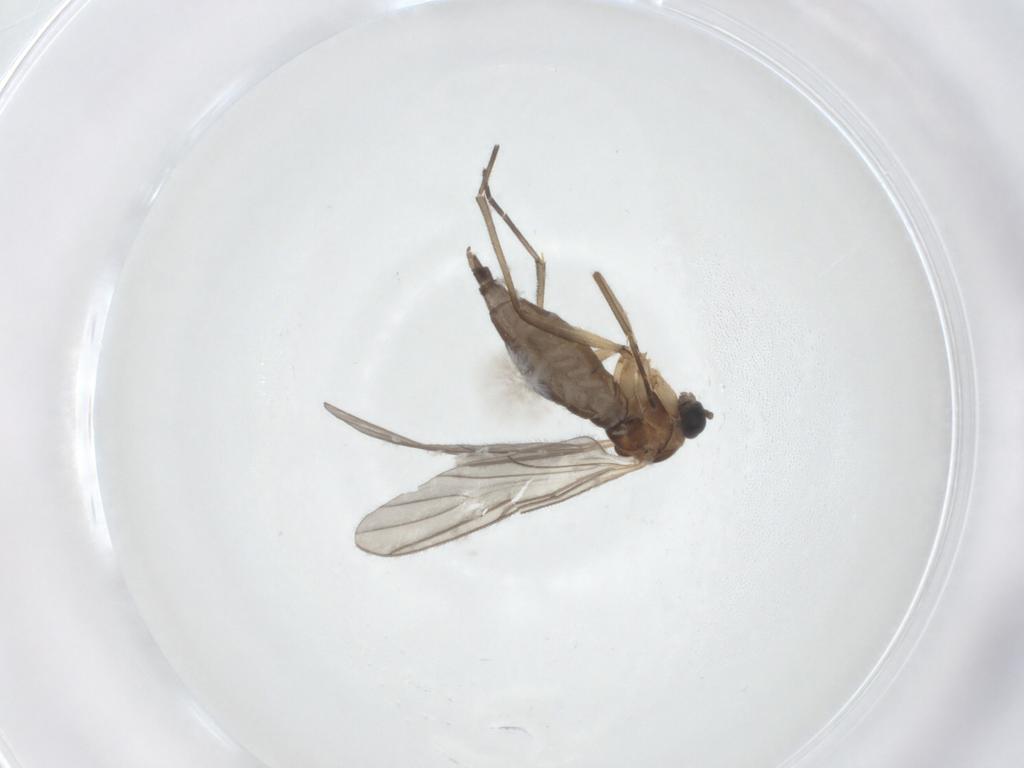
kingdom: Animalia
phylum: Arthropoda
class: Insecta
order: Diptera
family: Sciaridae
